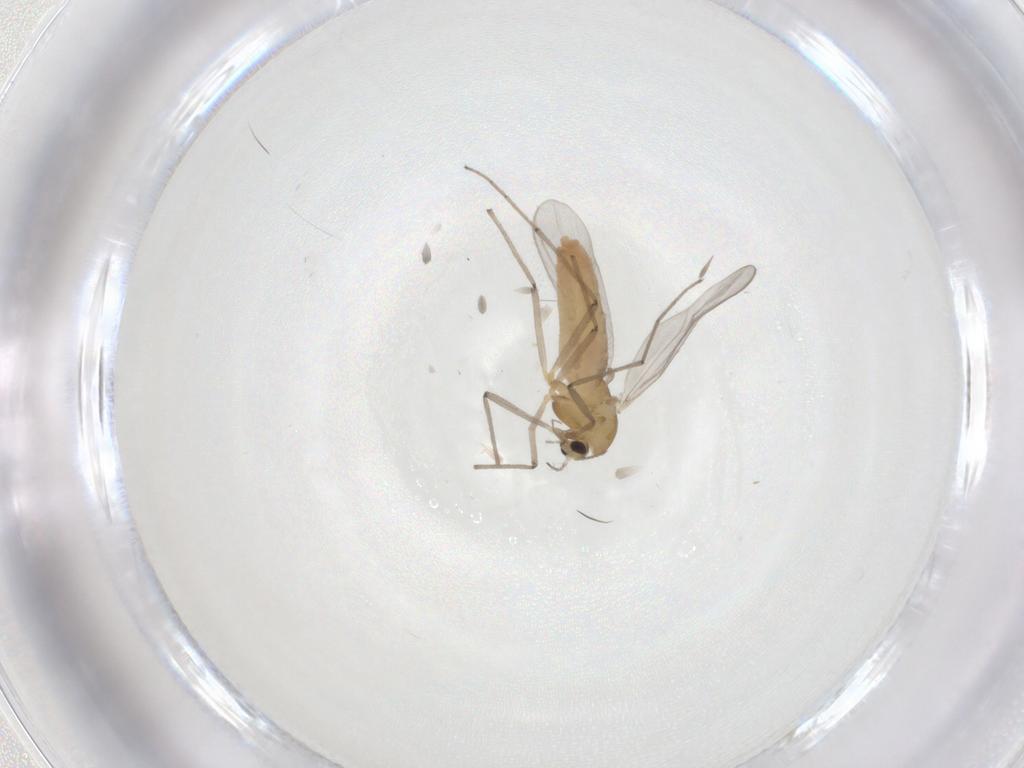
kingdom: Animalia
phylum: Arthropoda
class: Insecta
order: Diptera
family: Chironomidae
